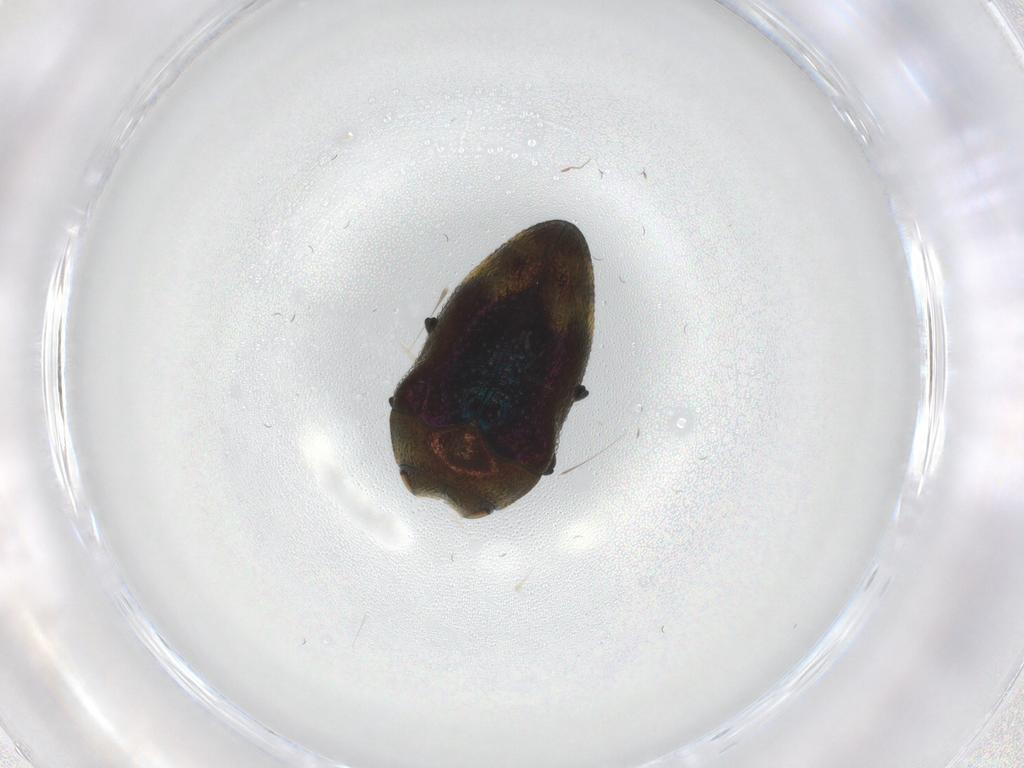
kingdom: Animalia
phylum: Arthropoda
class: Insecta
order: Coleoptera
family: Buprestidae
